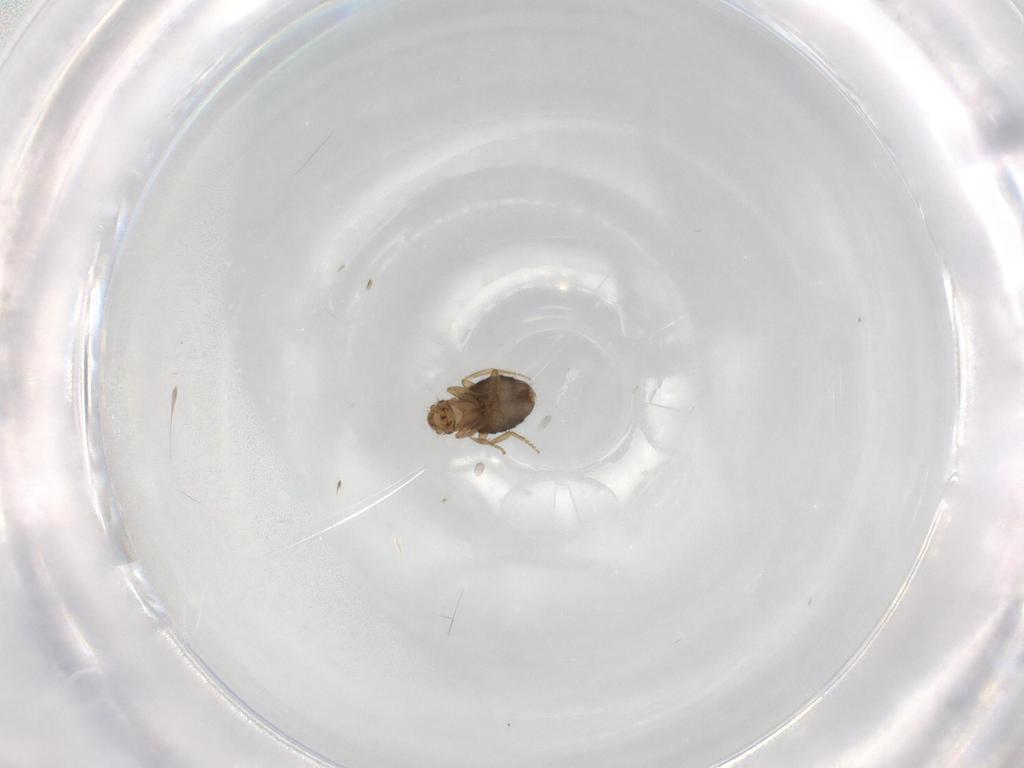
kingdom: Animalia
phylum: Arthropoda
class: Insecta
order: Diptera
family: Phoridae
